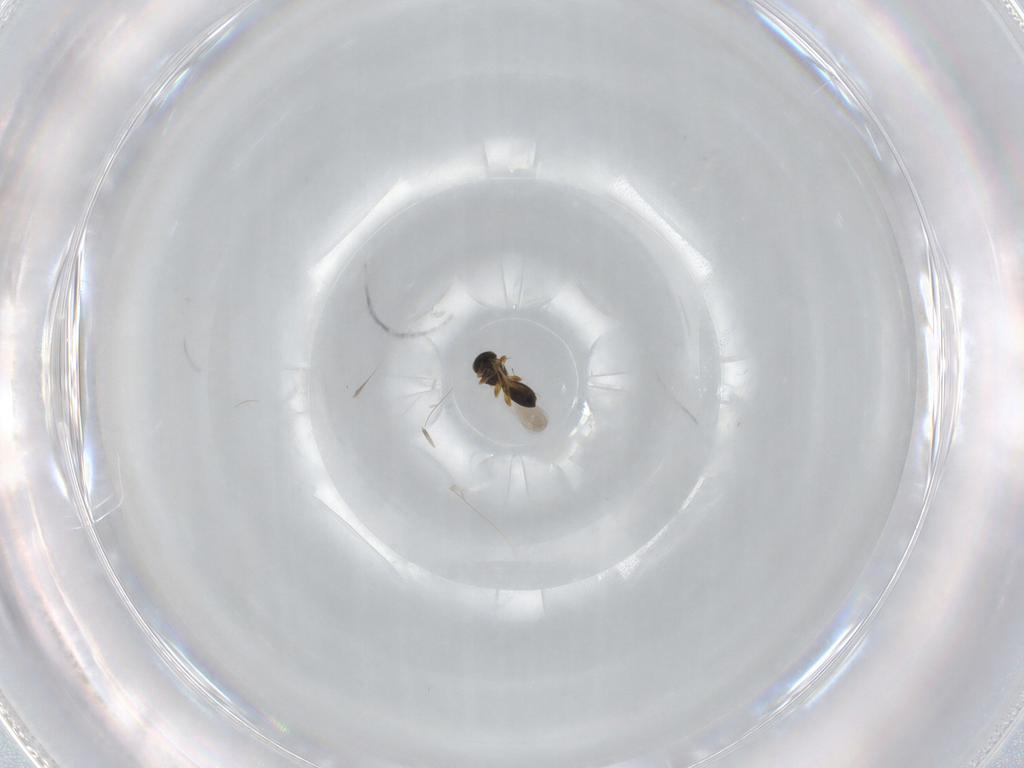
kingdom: Animalia
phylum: Arthropoda
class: Insecta
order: Hymenoptera
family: Platygastridae
